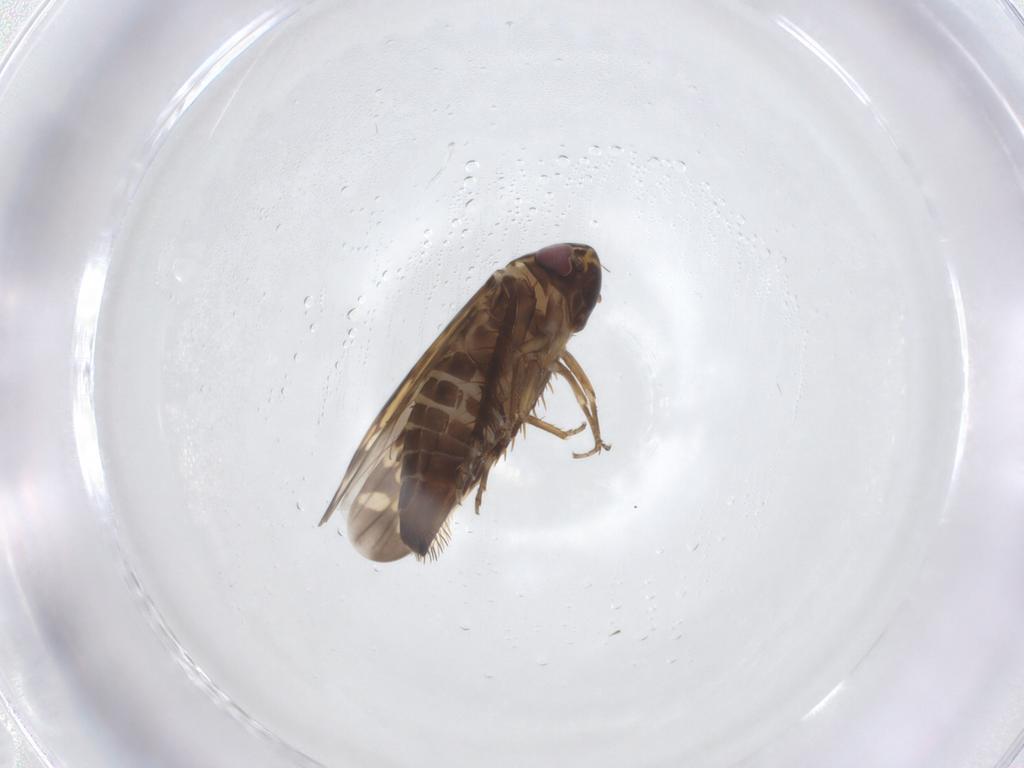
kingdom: Animalia
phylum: Arthropoda
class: Insecta
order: Hemiptera
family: Cicadellidae
